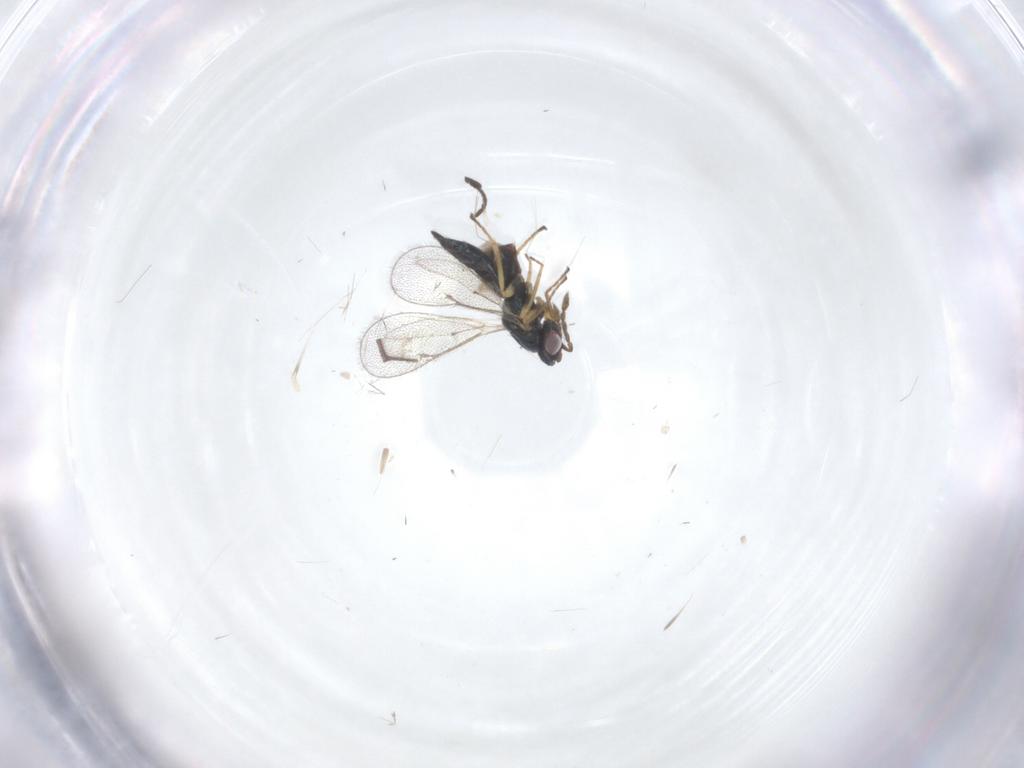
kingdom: Animalia
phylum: Arthropoda
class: Insecta
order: Hymenoptera
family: Eulophidae
